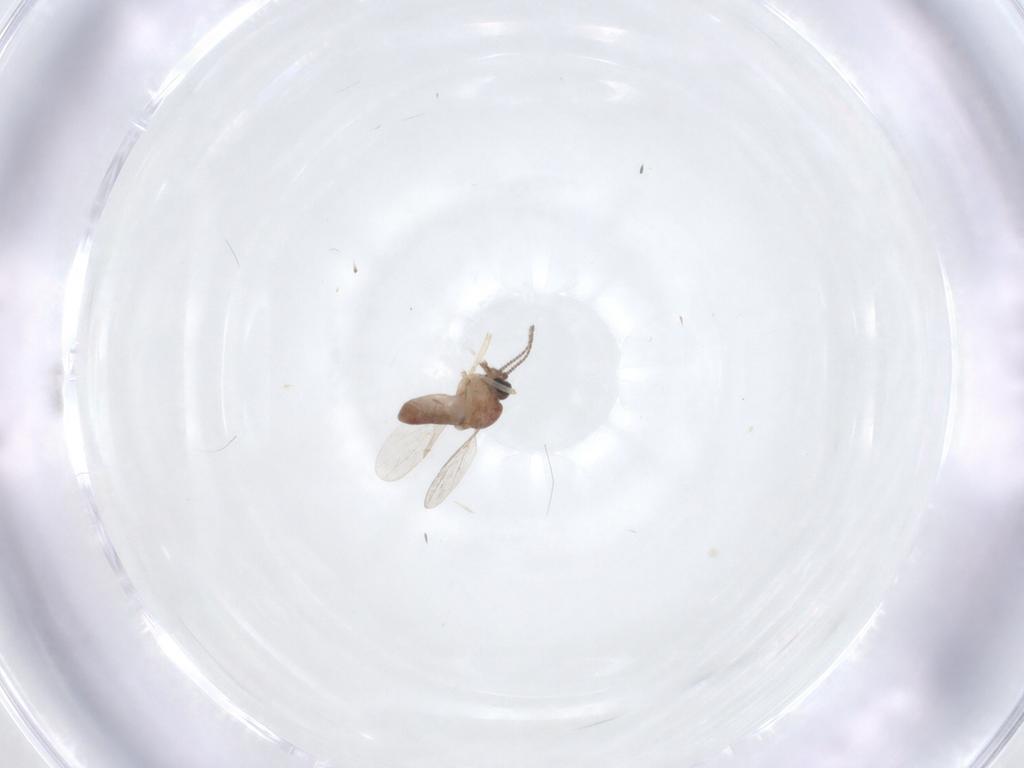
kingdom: Animalia
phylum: Arthropoda
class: Insecta
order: Diptera
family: Ceratopogonidae
